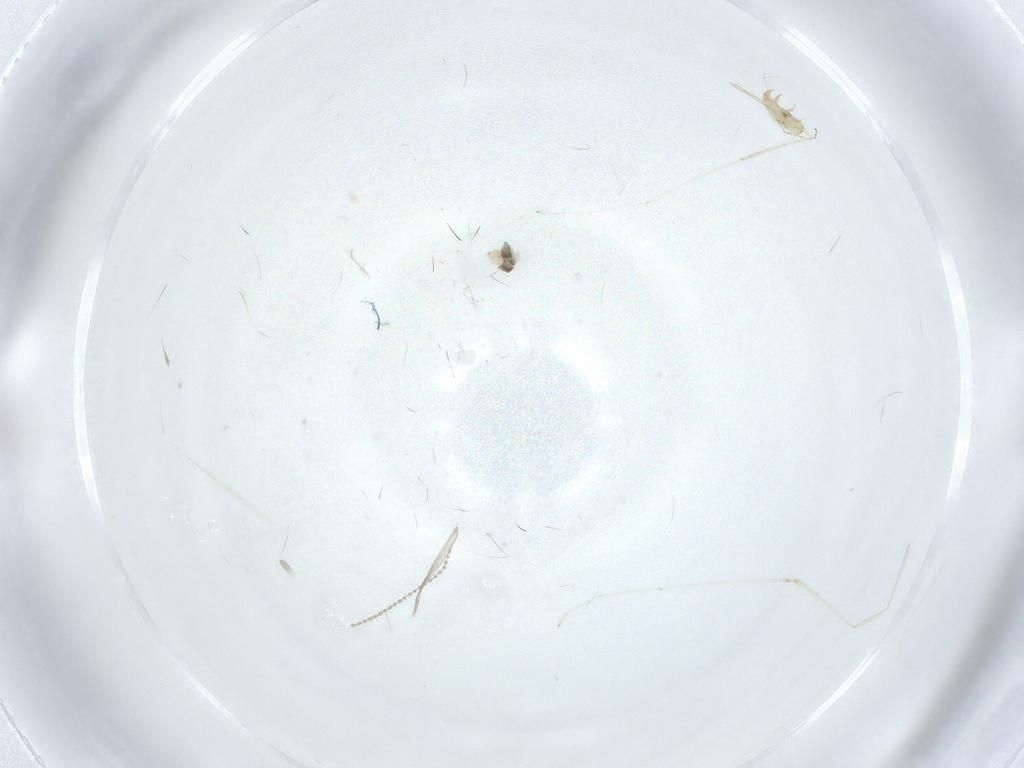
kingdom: Animalia
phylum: Arthropoda
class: Insecta
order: Diptera
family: Cecidomyiidae
